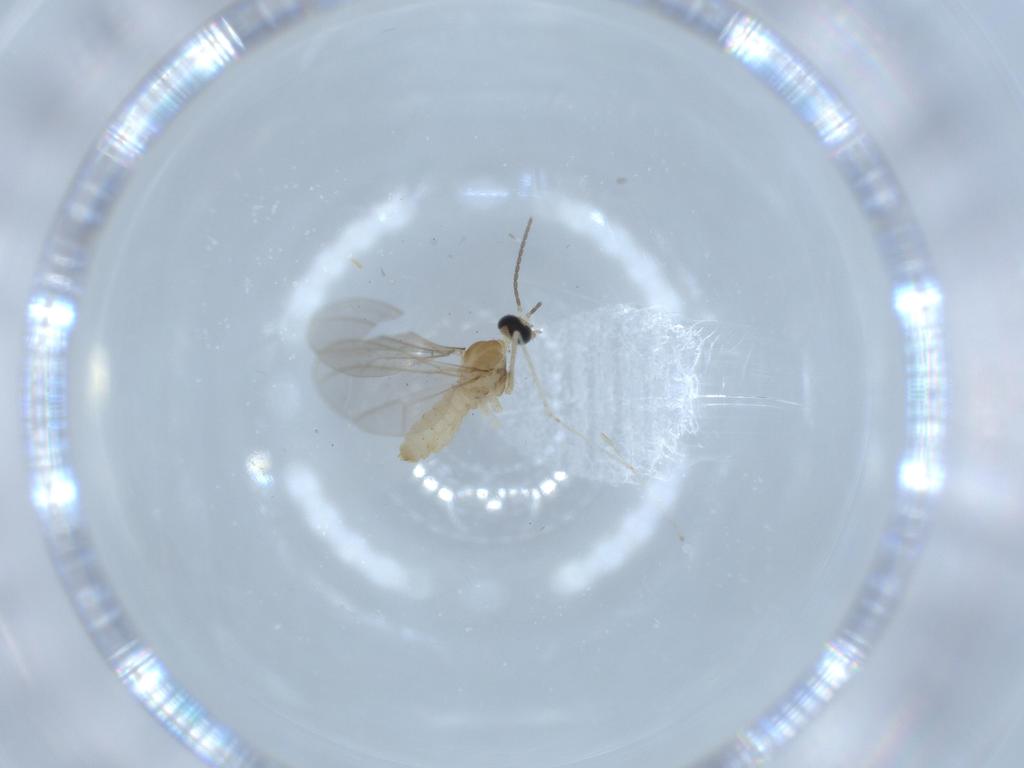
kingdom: Animalia
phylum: Arthropoda
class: Insecta
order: Diptera
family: Cecidomyiidae
